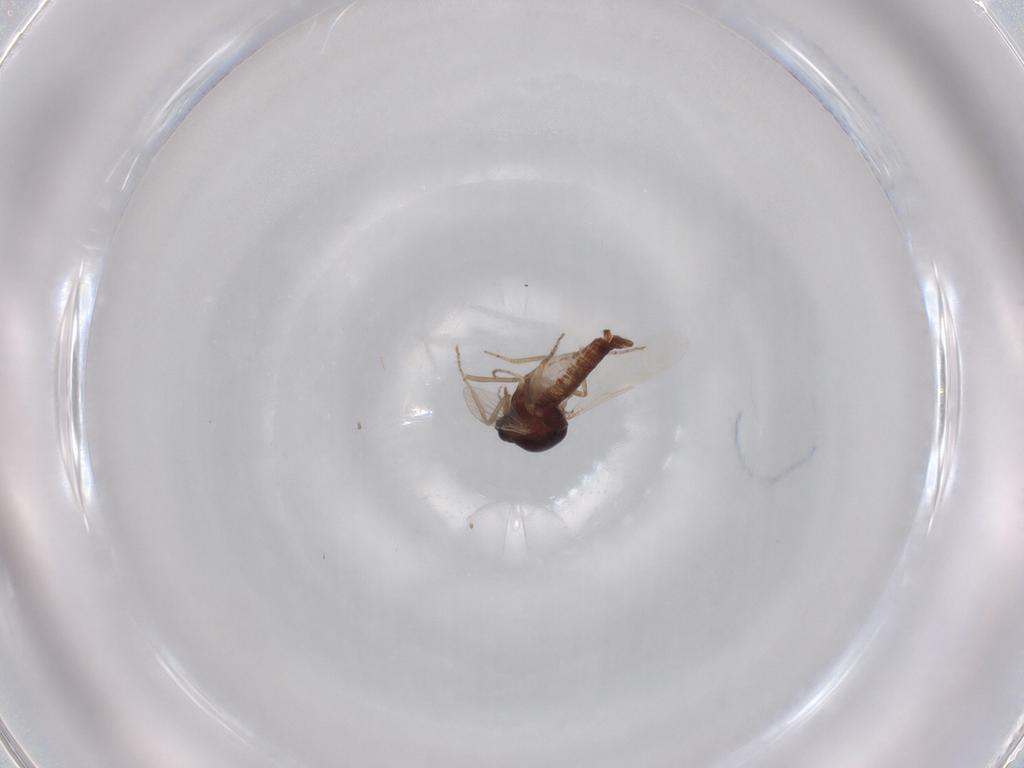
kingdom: Animalia
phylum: Arthropoda
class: Insecta
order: Diptera
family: Ceratopogonidae
